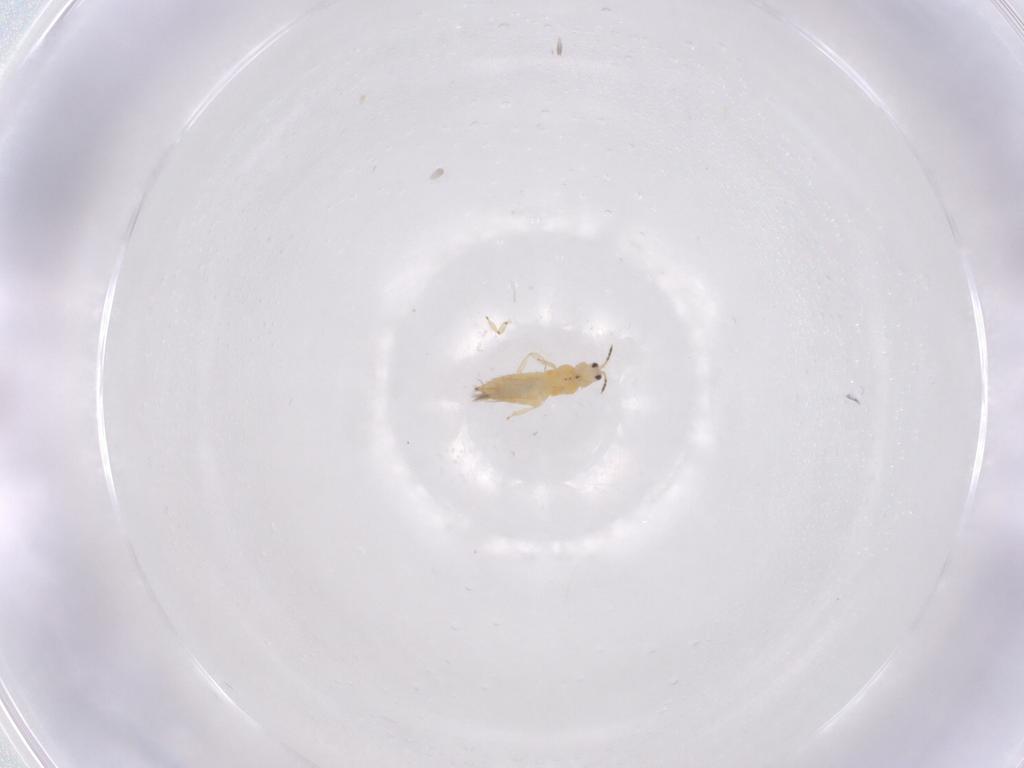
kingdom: Animalia
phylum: Arthropoda
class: Insecta
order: Thysanoptera
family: Thripidae
